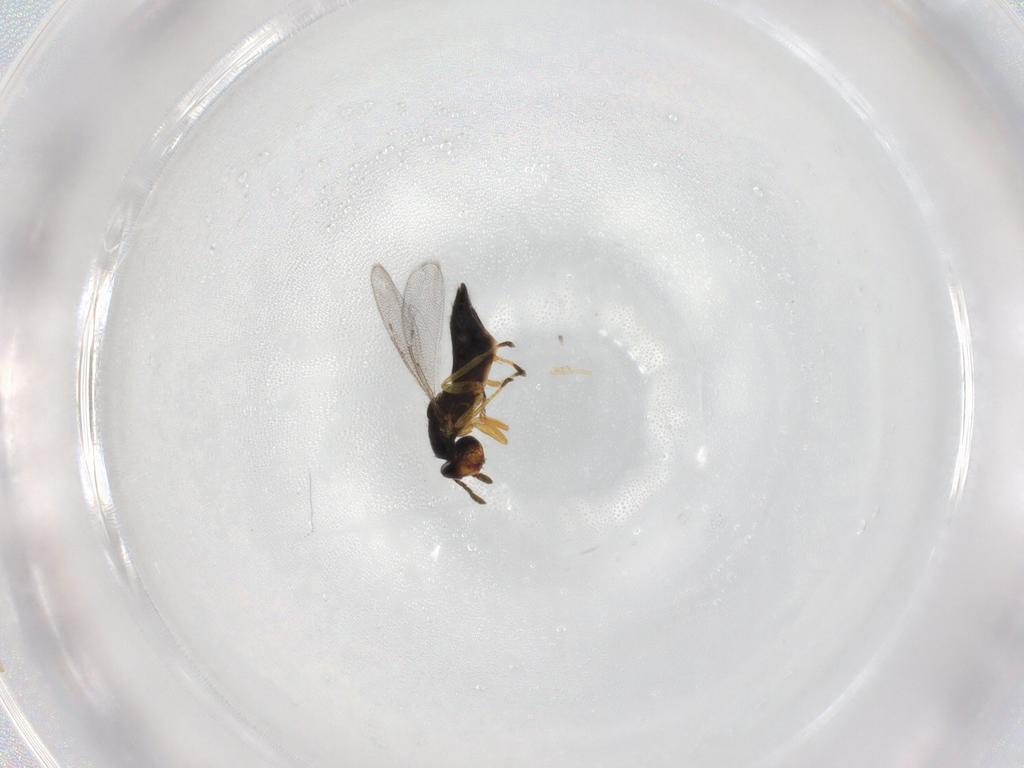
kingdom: Animalia
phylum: Arthropoda
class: Insecta
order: Hymenoptera
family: Eulophidae
